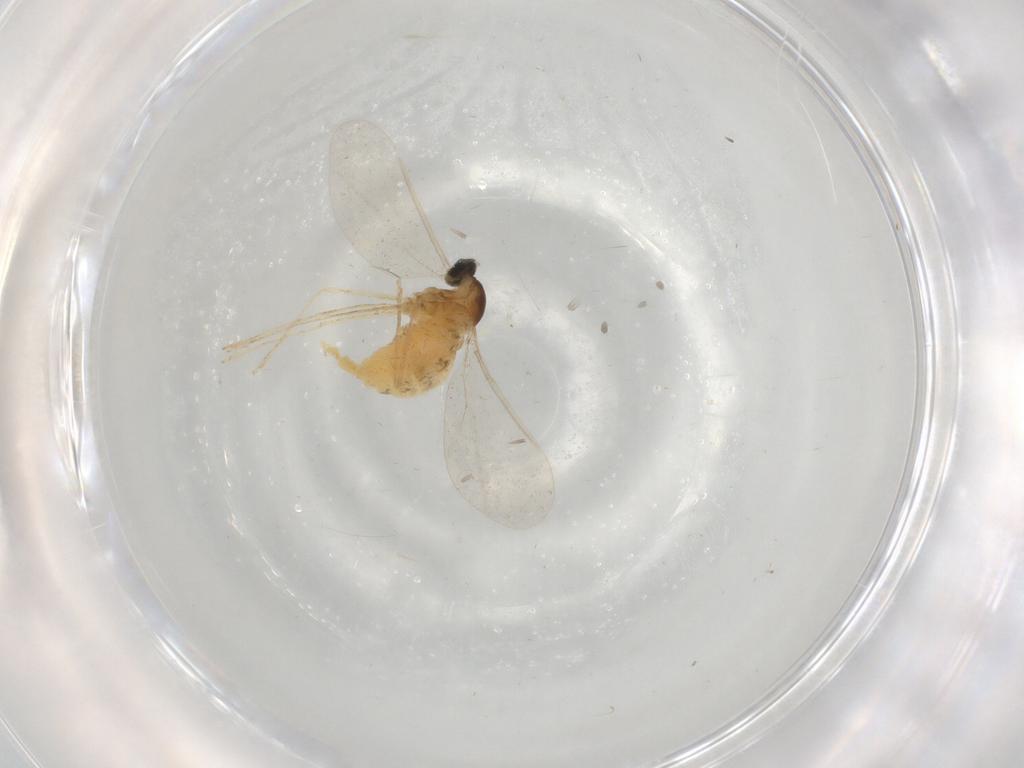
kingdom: Animalia
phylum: Arthropoda
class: Insecta
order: Diptera
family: Cecidomyiidae
